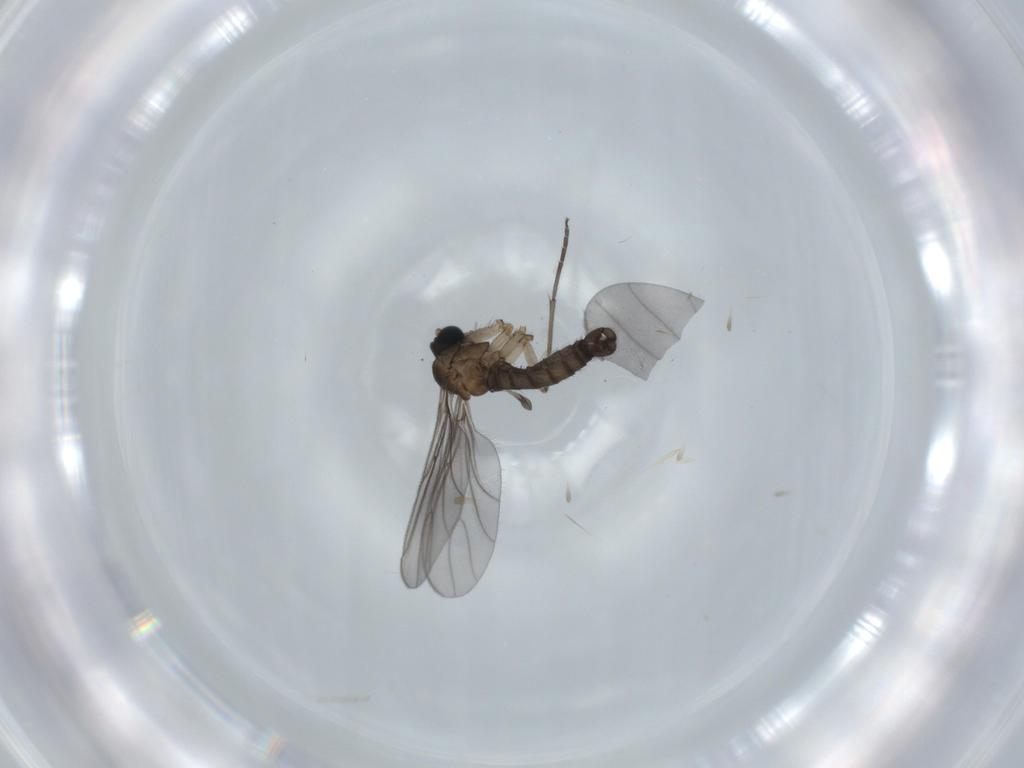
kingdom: Animalia
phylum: Arthropoda
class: Insecta
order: Diptera
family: Sciaridae
